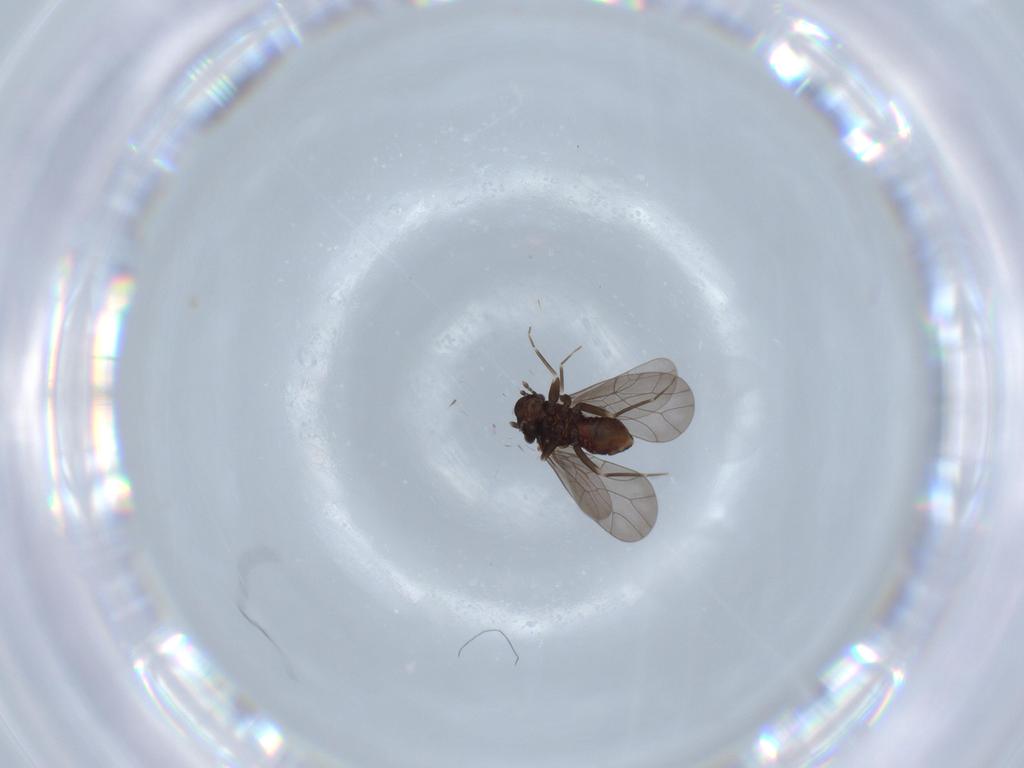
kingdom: Animalia
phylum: Arthropoda
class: Insecta
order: Psocodea
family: Lepidopsocidae
